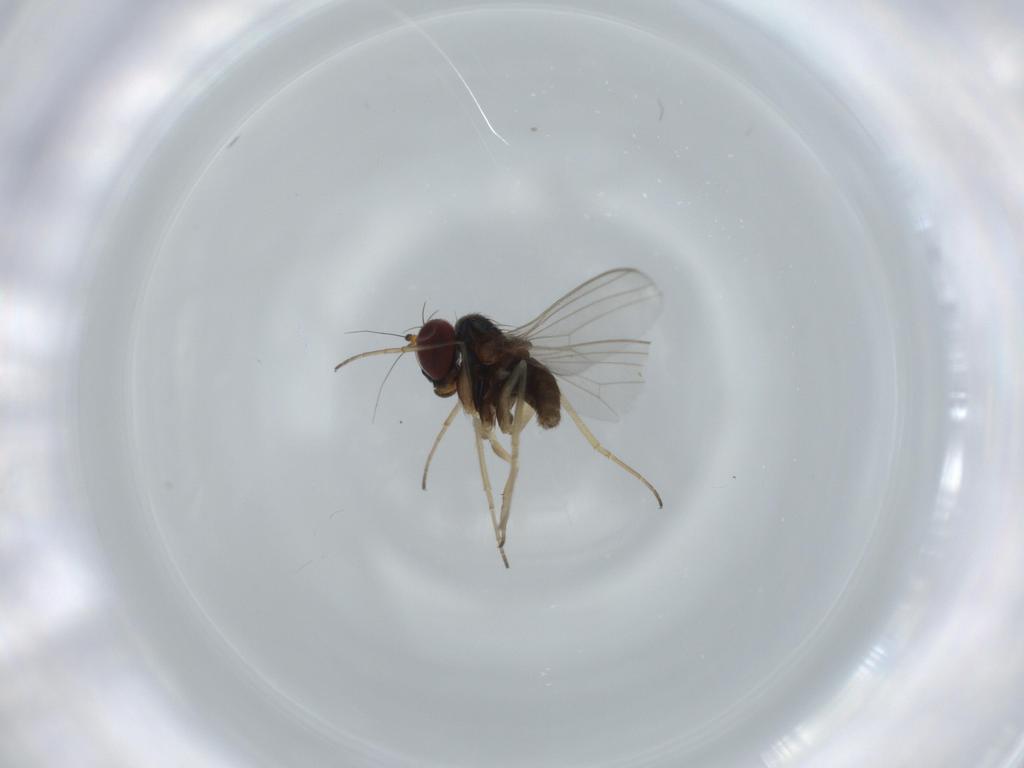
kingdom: Animalia
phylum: Arthropoda
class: Insecta
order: Diptera
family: Cecidomyiidae
